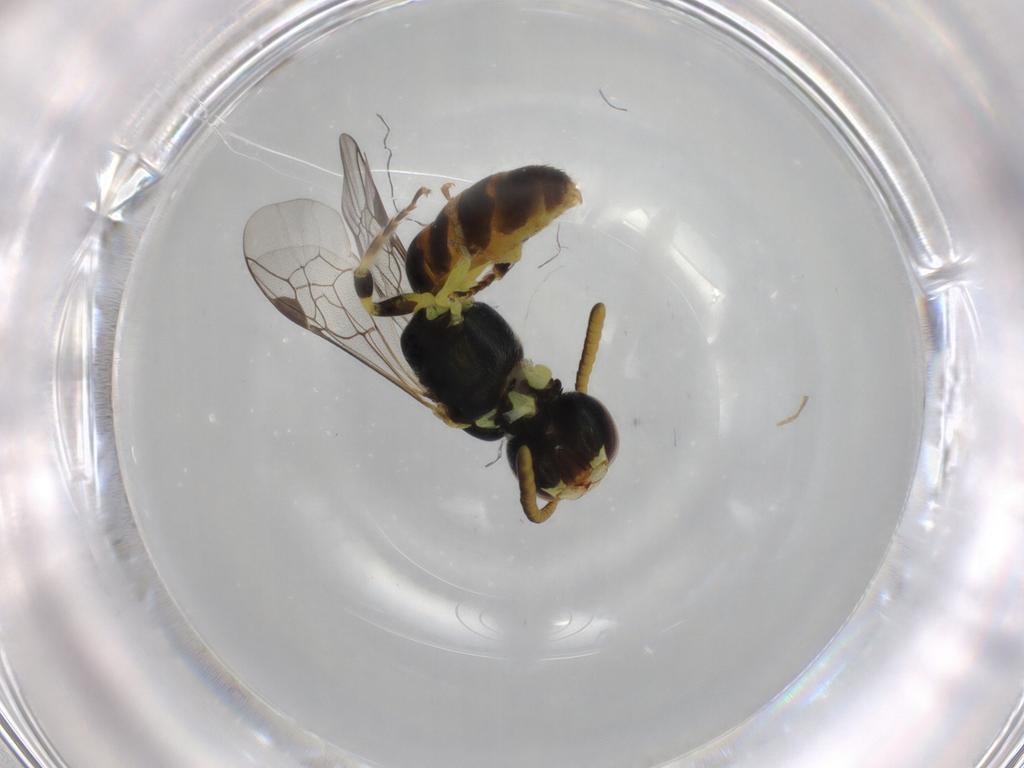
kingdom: Animalia
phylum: Arthropoda
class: Insecta
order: Hymenoptera
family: Colletidae
